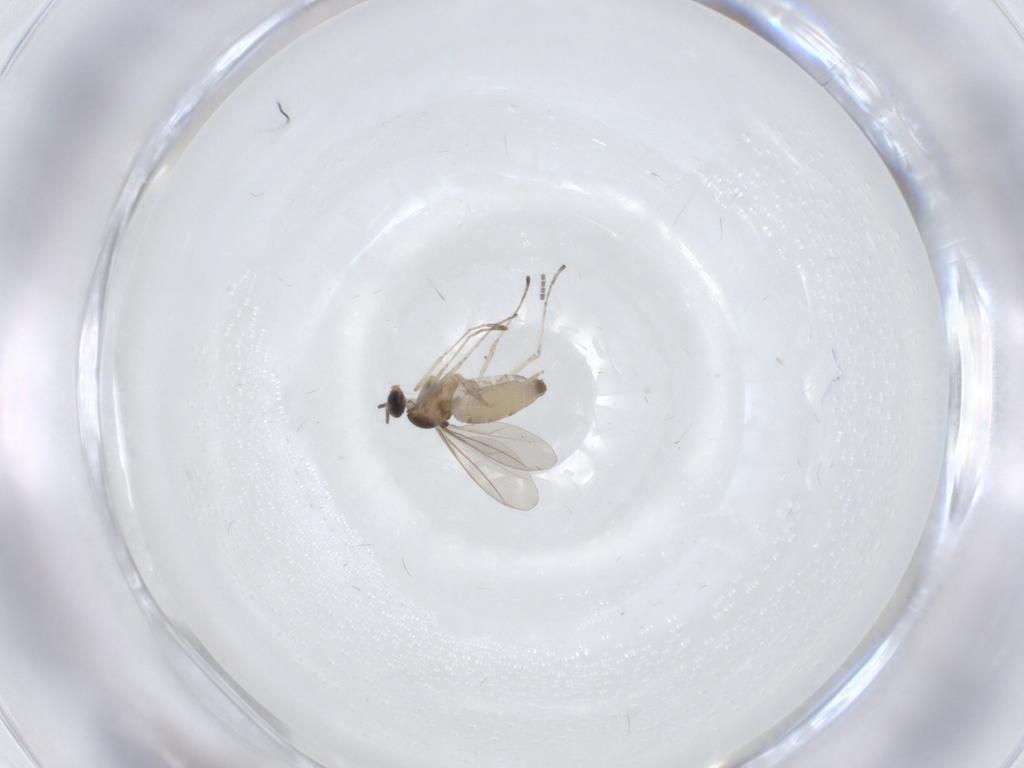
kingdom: Animalia
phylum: Arthropoda
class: Insecta
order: Diptera
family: Cecidomyiidae
